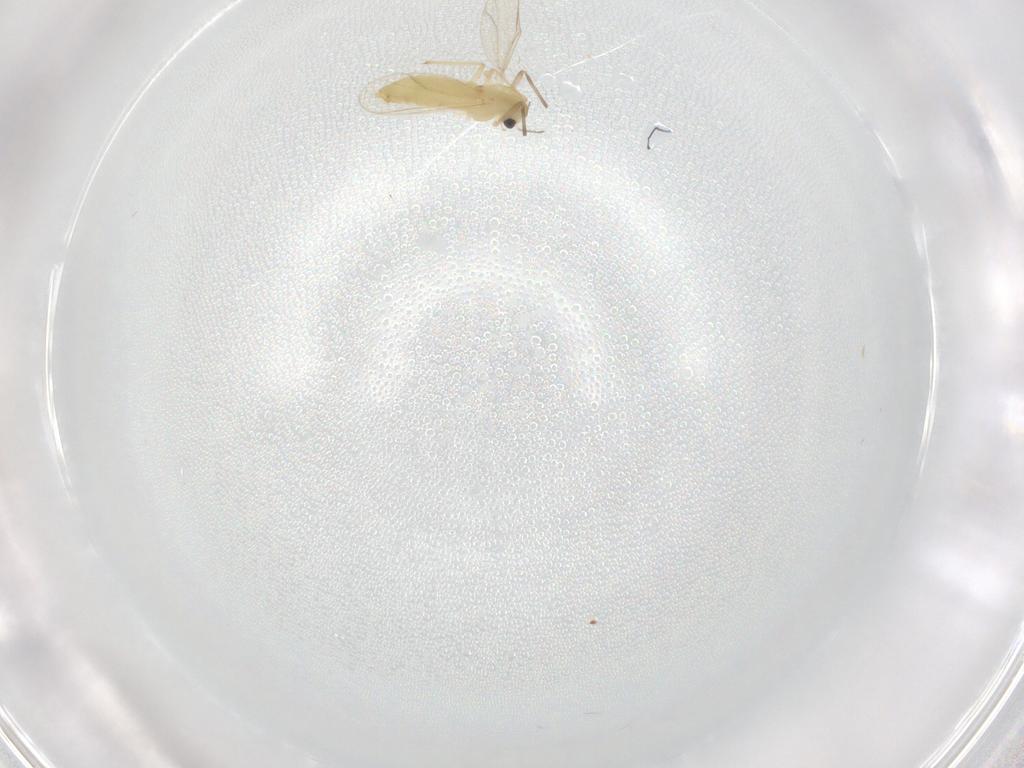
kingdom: Animalia
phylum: Arthropoda
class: Insecta
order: Diptera
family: Chironomidae
